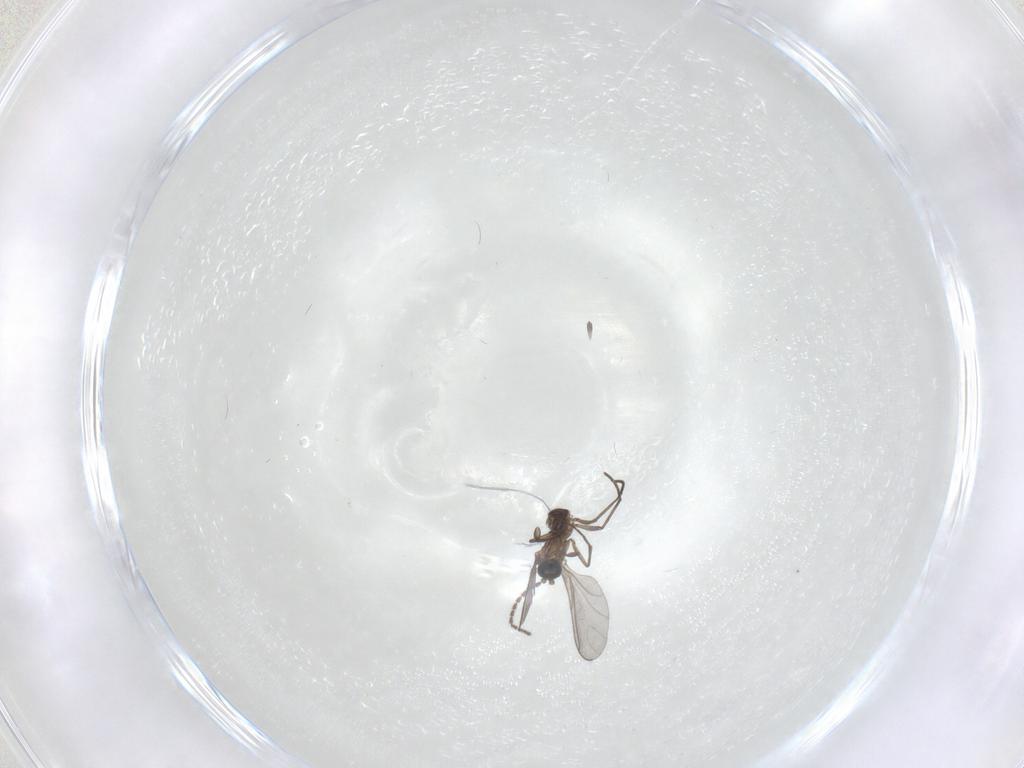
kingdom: Animalia
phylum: Arthropoda
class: Insecta
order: Diptera
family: Sciaridae
